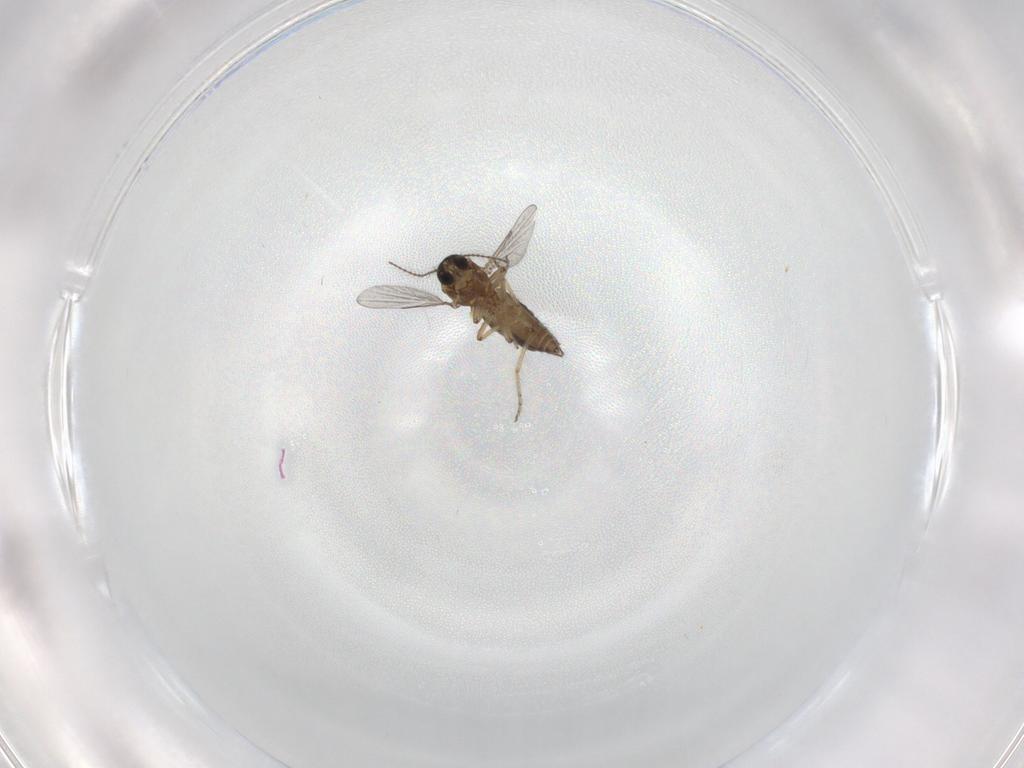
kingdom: Animalia
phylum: Arthropoda
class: Insecta
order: Diptera
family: Ceratopogonidae
